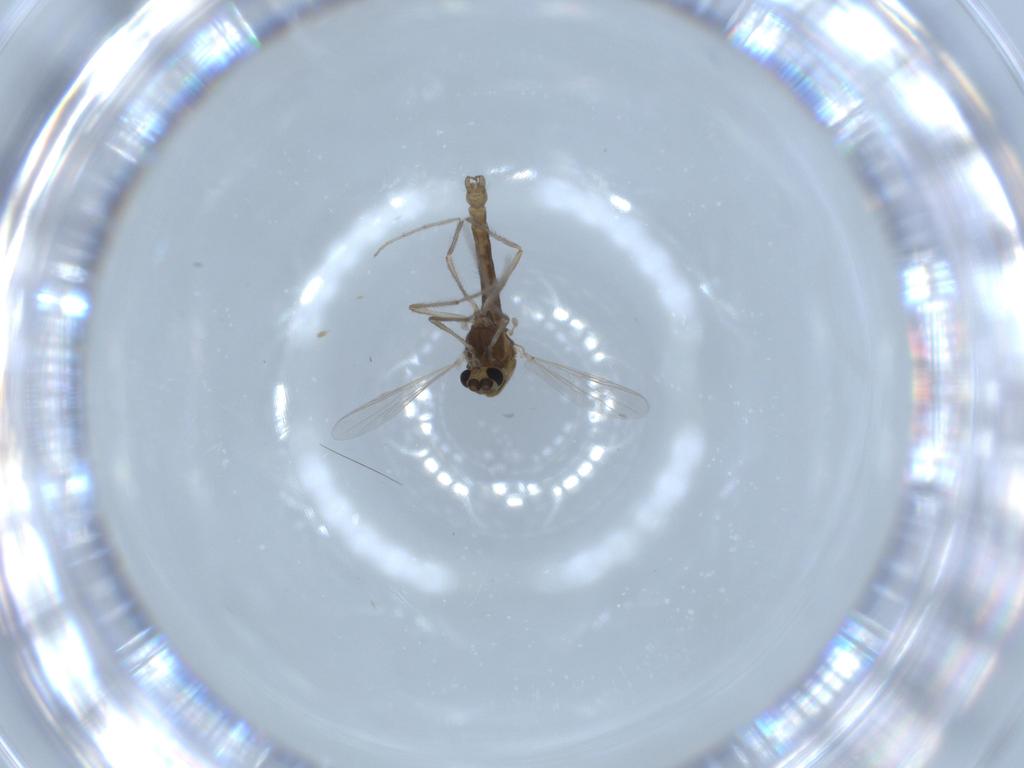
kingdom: Animalia
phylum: Arthropoda
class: Insecta
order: Diptera
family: Chironomidae
